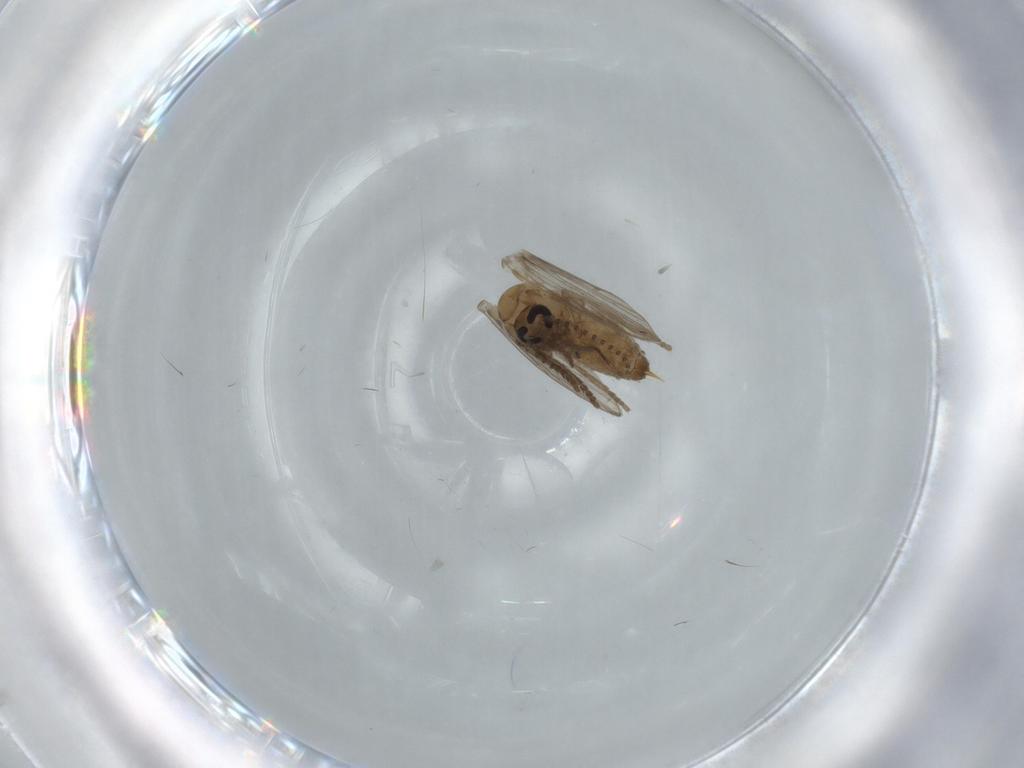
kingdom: Animalia
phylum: Arthropoda
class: Insecta
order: Diptera
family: Psychodidae
